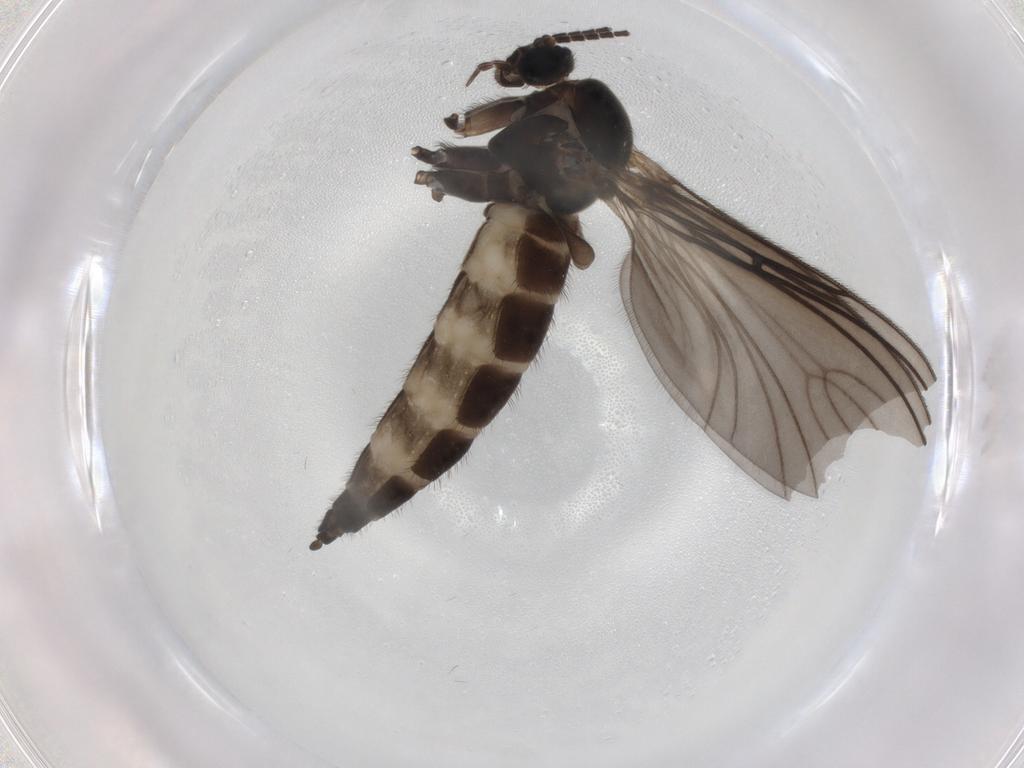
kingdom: Animalia
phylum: Arthropoda
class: Insecta
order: Diptera
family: Sciaridae
